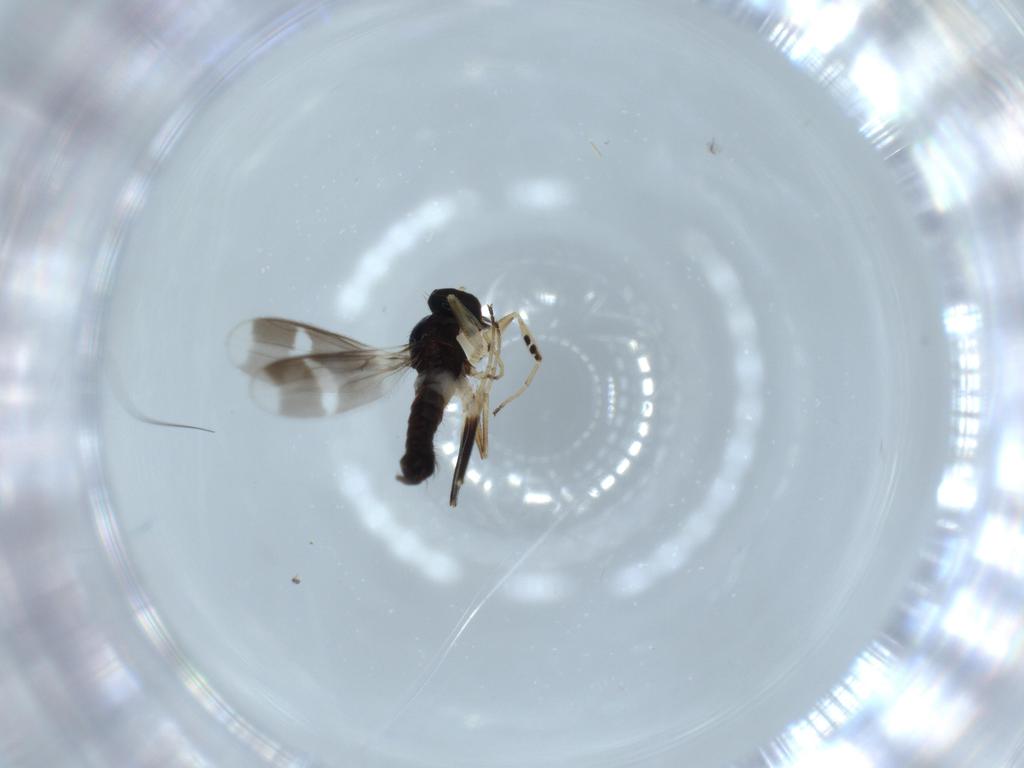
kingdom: Animalia
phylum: Arthropoda
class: Insecta
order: Diptera
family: Hybotidae
